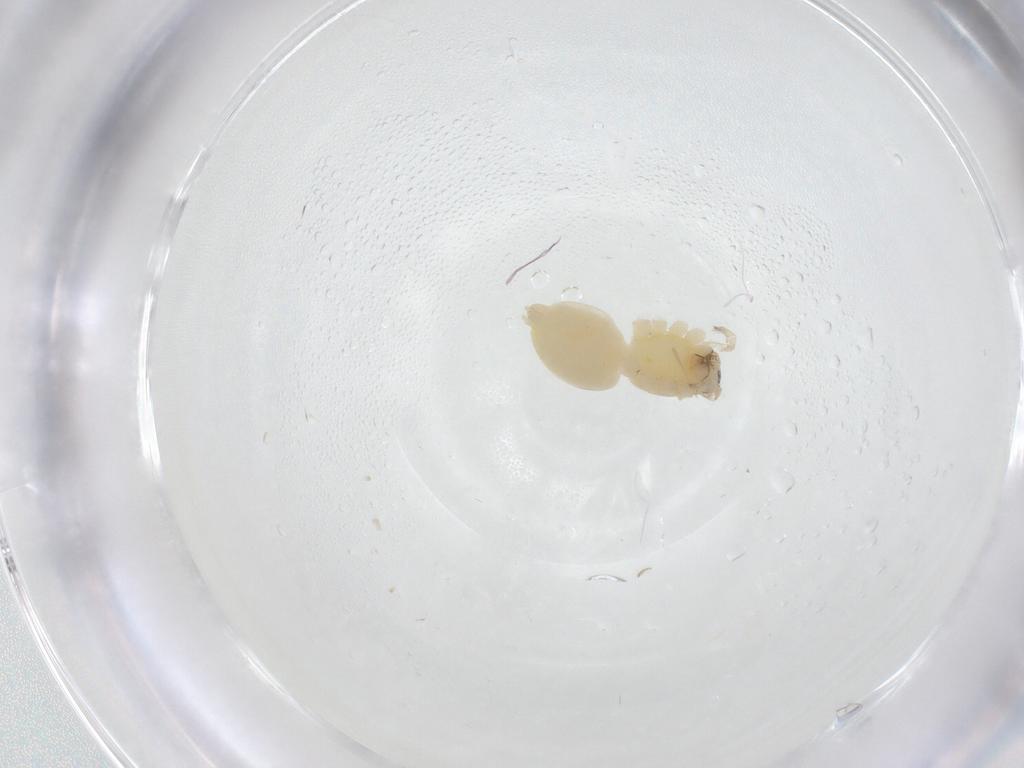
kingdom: Animalia
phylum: Arthropoda
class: Arachnida
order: Araneae
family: Anyphaenidae
